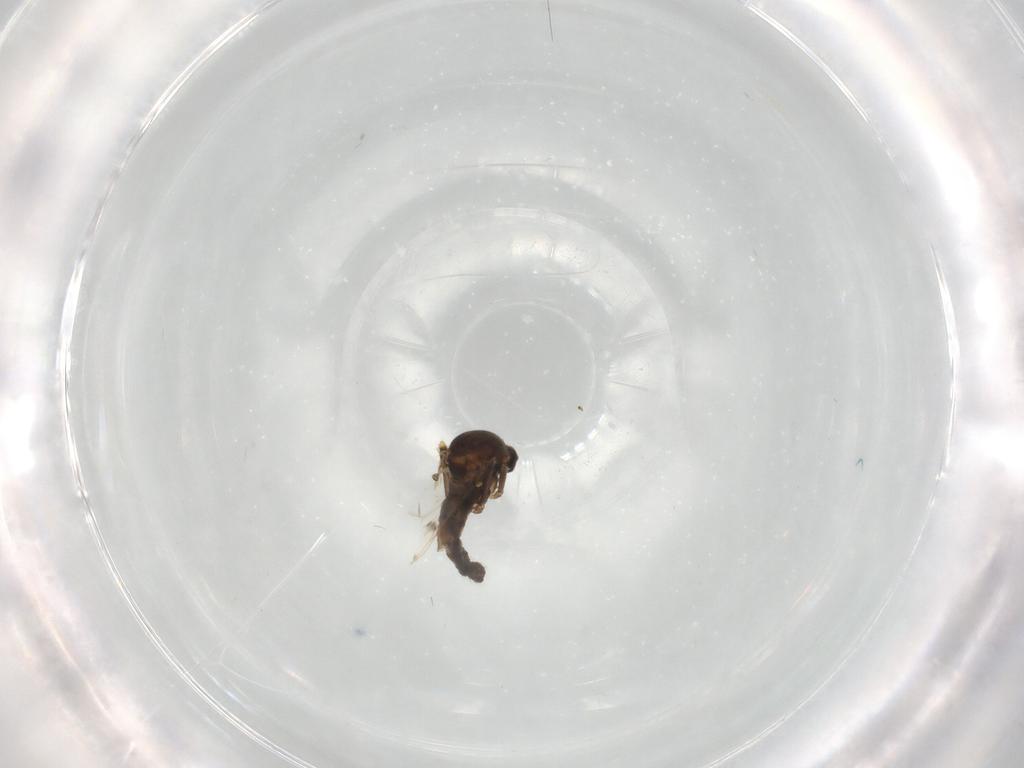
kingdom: Animalia
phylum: Arthropoda
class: Insecta
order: Diptera
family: Ceratopogonidae
